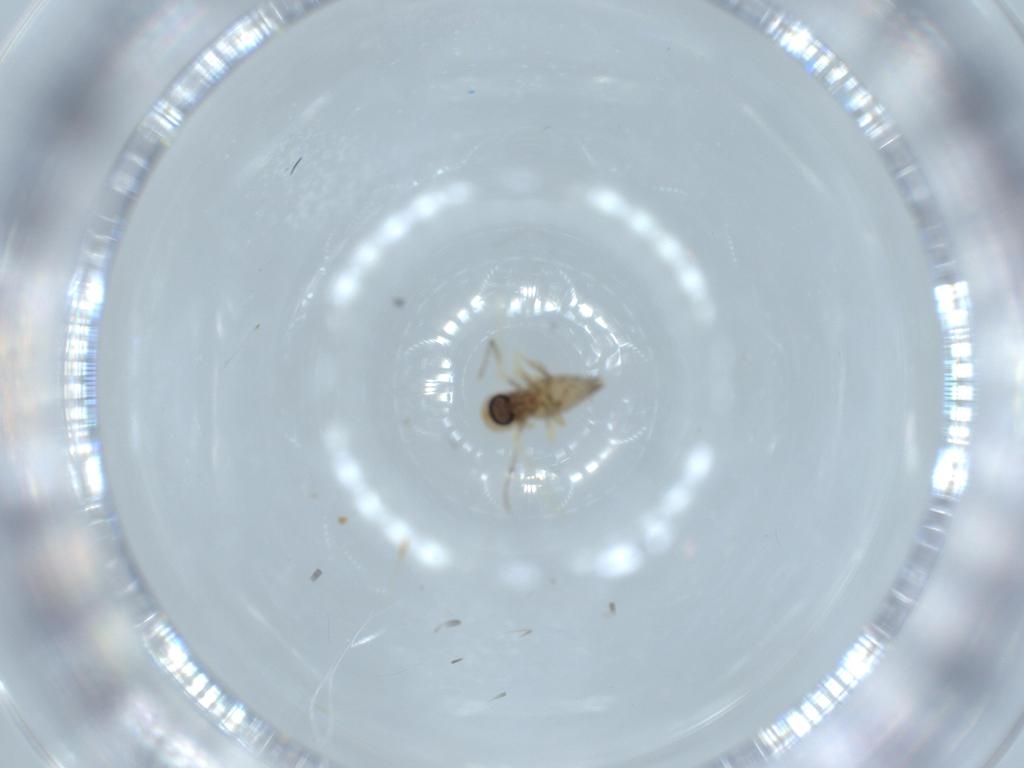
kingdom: Animalia
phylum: Arthropoda
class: Insecta
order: Diptera
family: Ceratopogonidae
